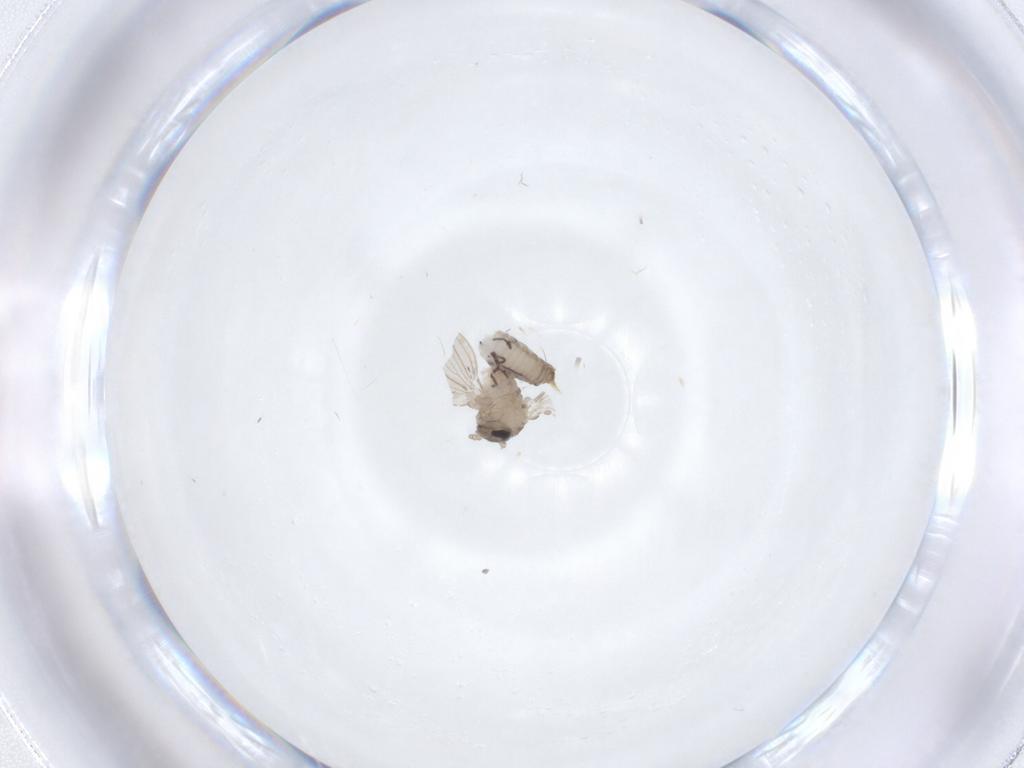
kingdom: Animalia
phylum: Arthropoda
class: Insecta
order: Diptera
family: Psychodidae
